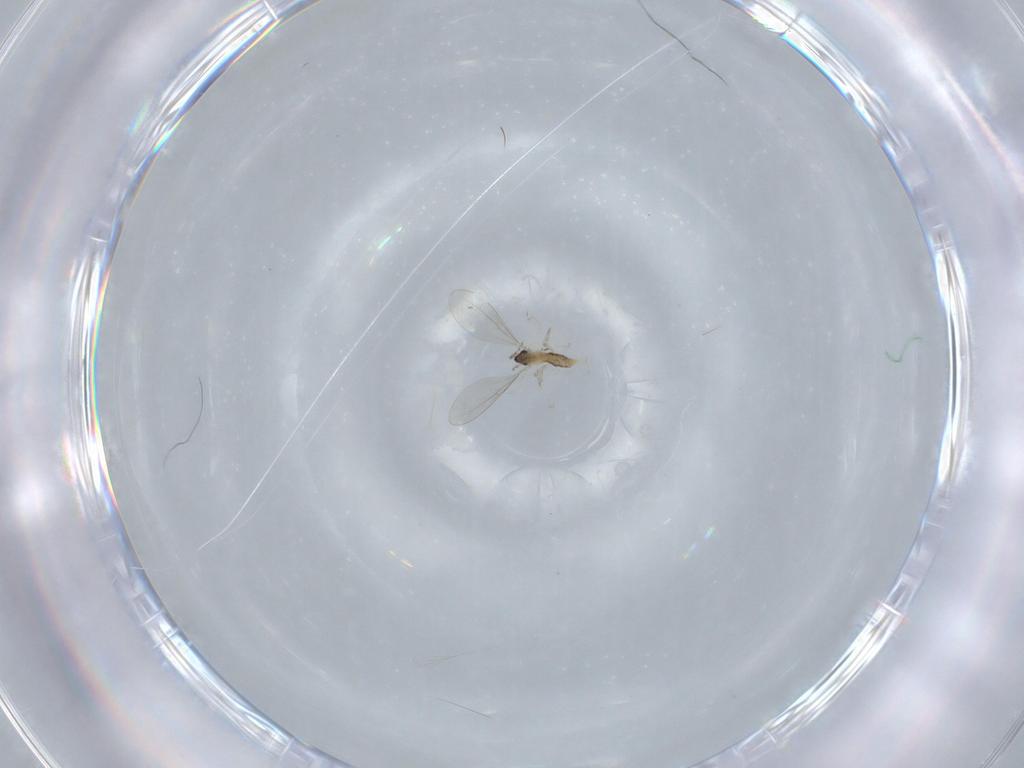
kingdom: Animalia
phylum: Arthropoda
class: Insecta
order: Diptera
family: Cecidomyiidae
